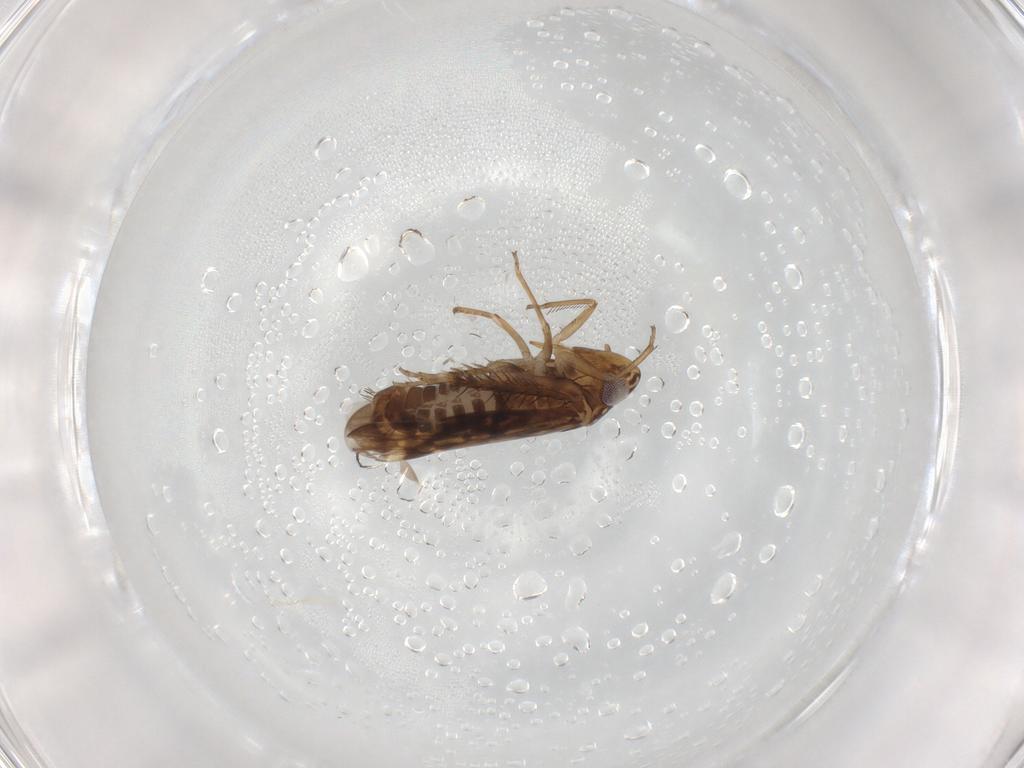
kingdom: Animalia
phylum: Arthropoda
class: Insecta
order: Hemiptera
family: Cicadellidae
